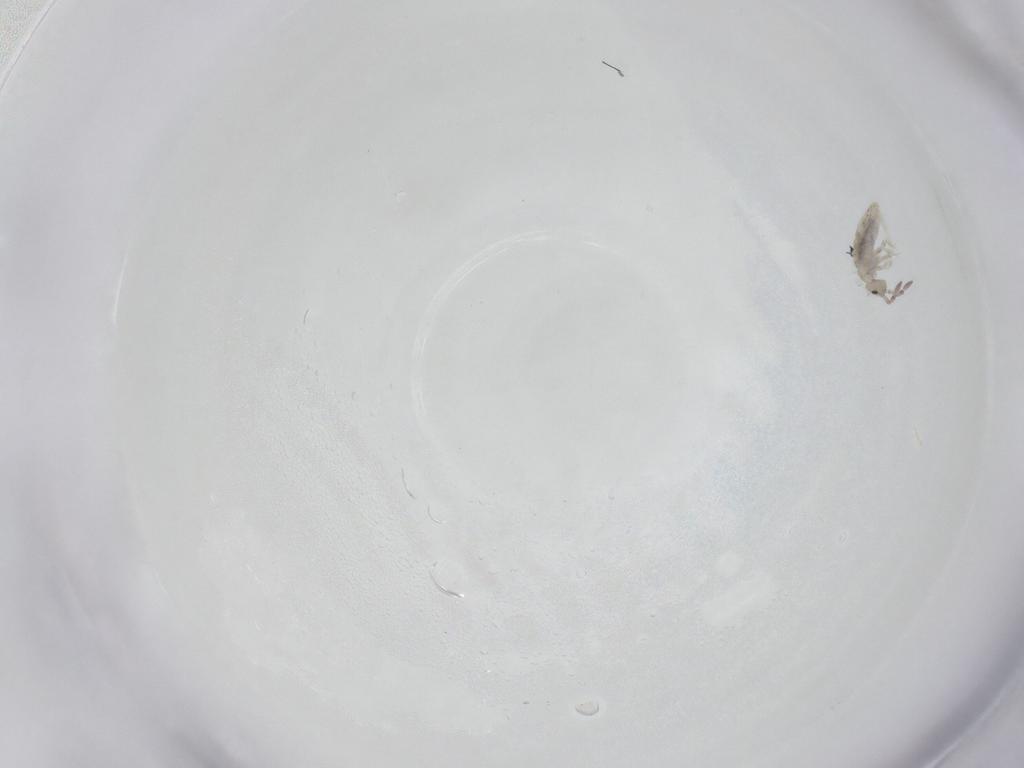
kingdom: Animalia
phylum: Arthropoda
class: Collembola
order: Entomobryomorpha
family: Entomobryidae
